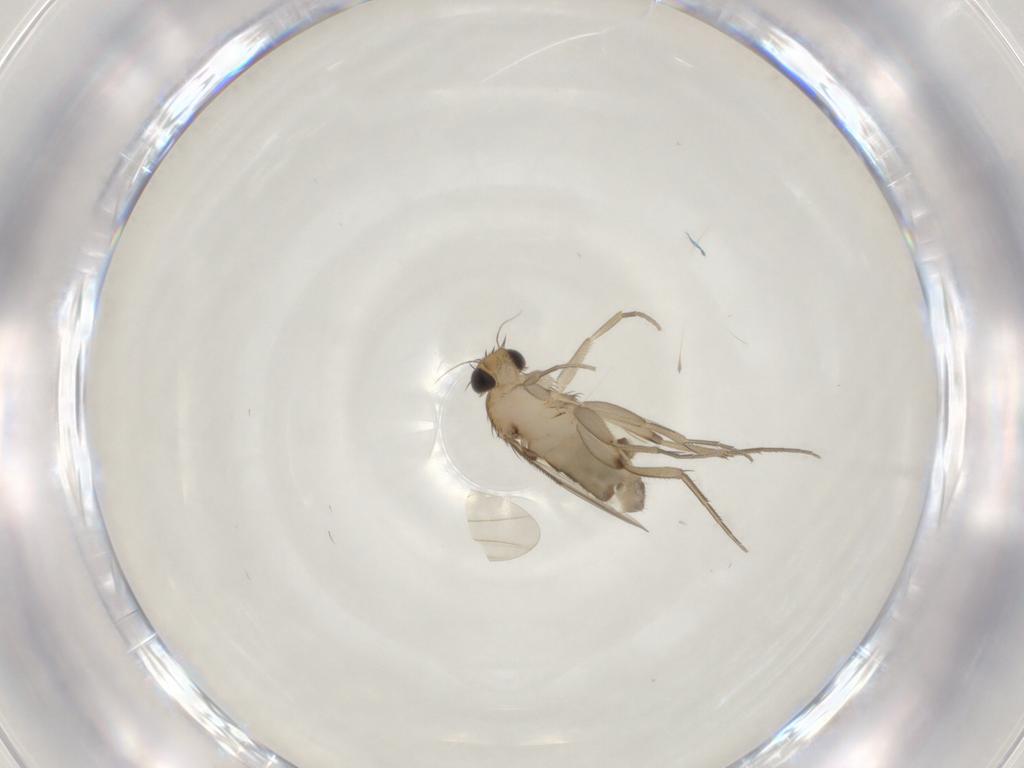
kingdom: Animalia
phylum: Arthropoda
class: Insecta
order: Diptera
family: Phoridae
